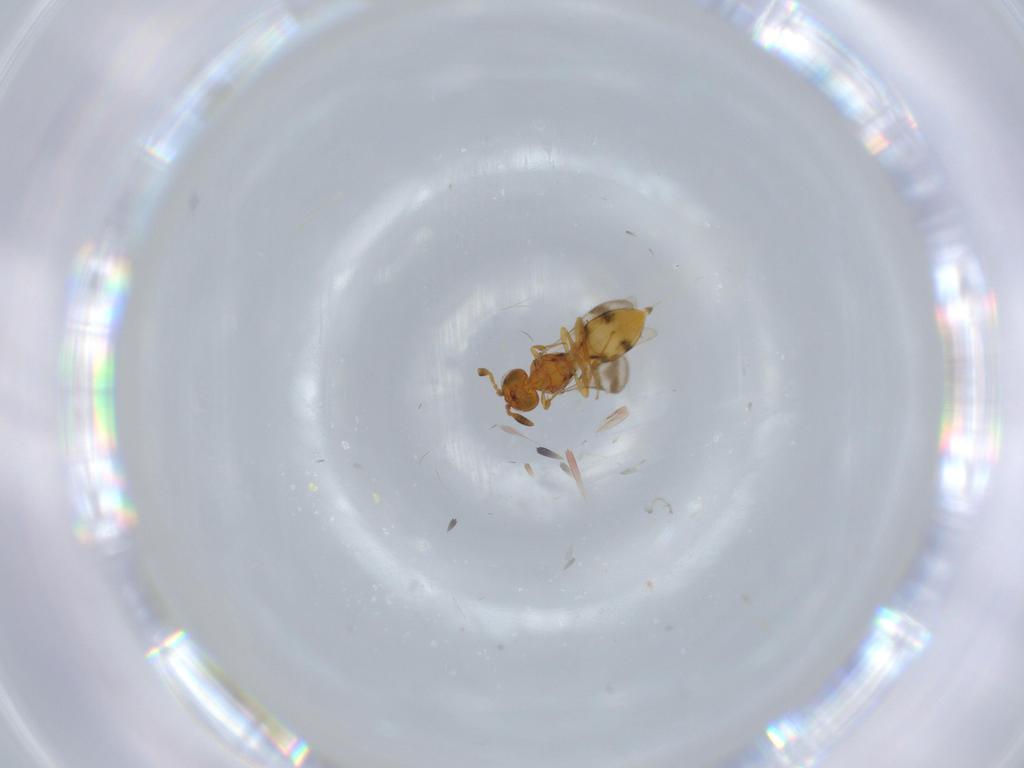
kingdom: Animalia
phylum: Arthropoda
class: Insecta
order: Hymenoptera
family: Scelionidae
